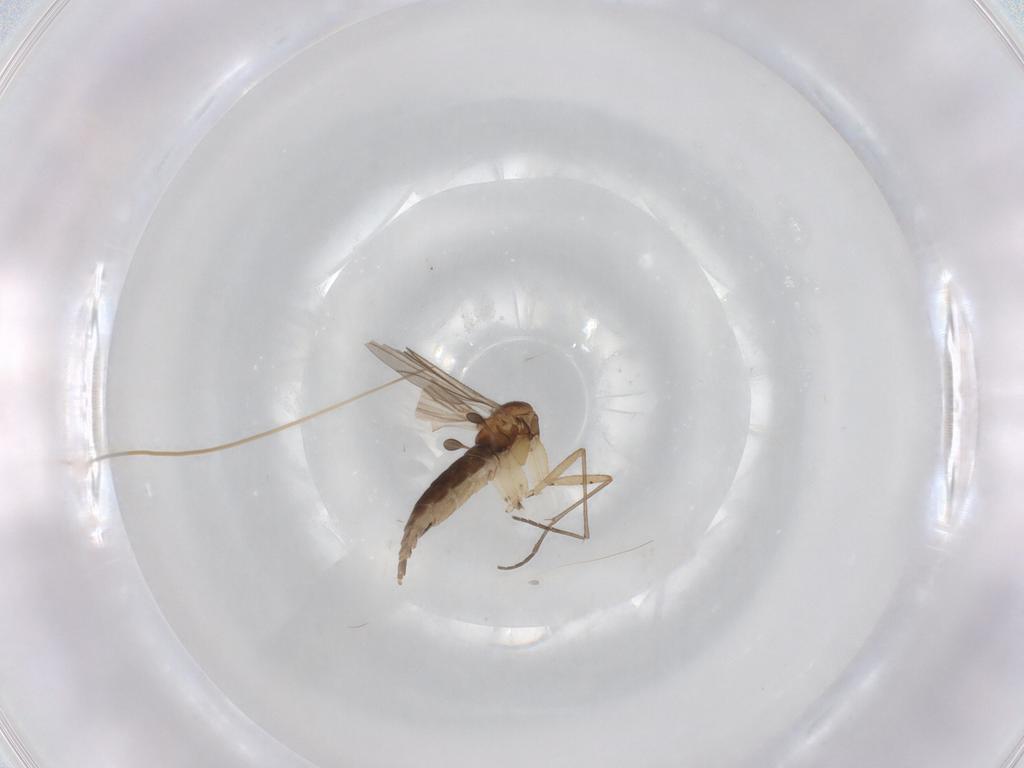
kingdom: Animalia
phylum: Arthropoda
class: Insecta
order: Diptera
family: Sciaridae
